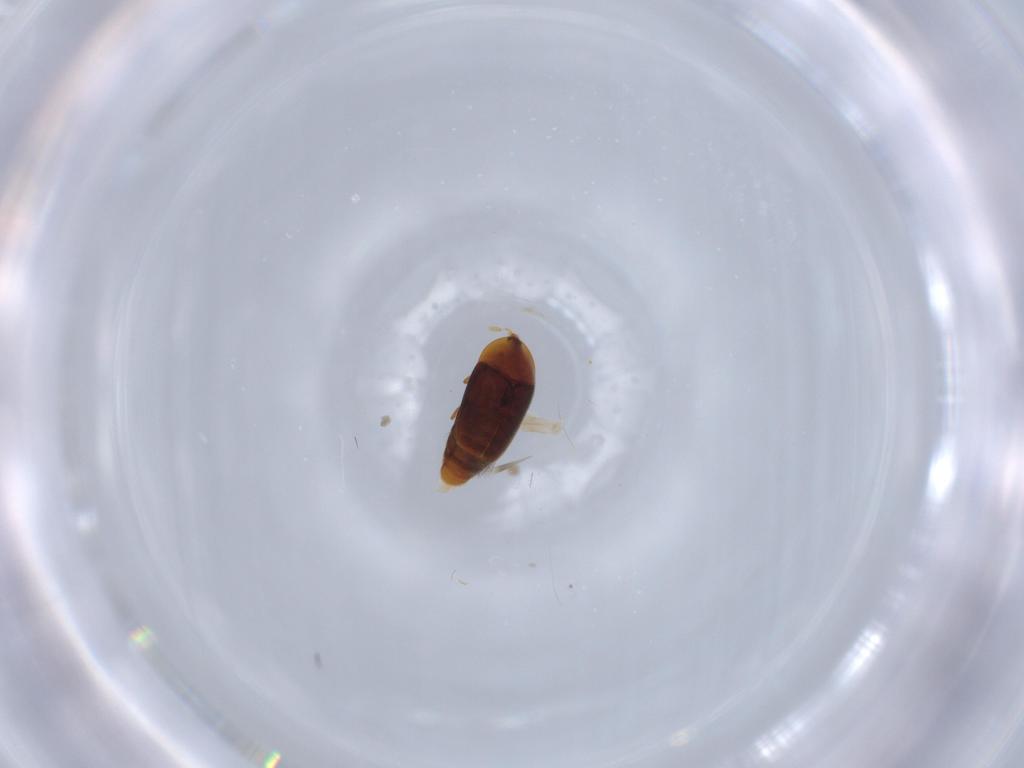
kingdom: Animalia
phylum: Arthropoda
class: Insecta
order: Coleoptera
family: Corylophidae
